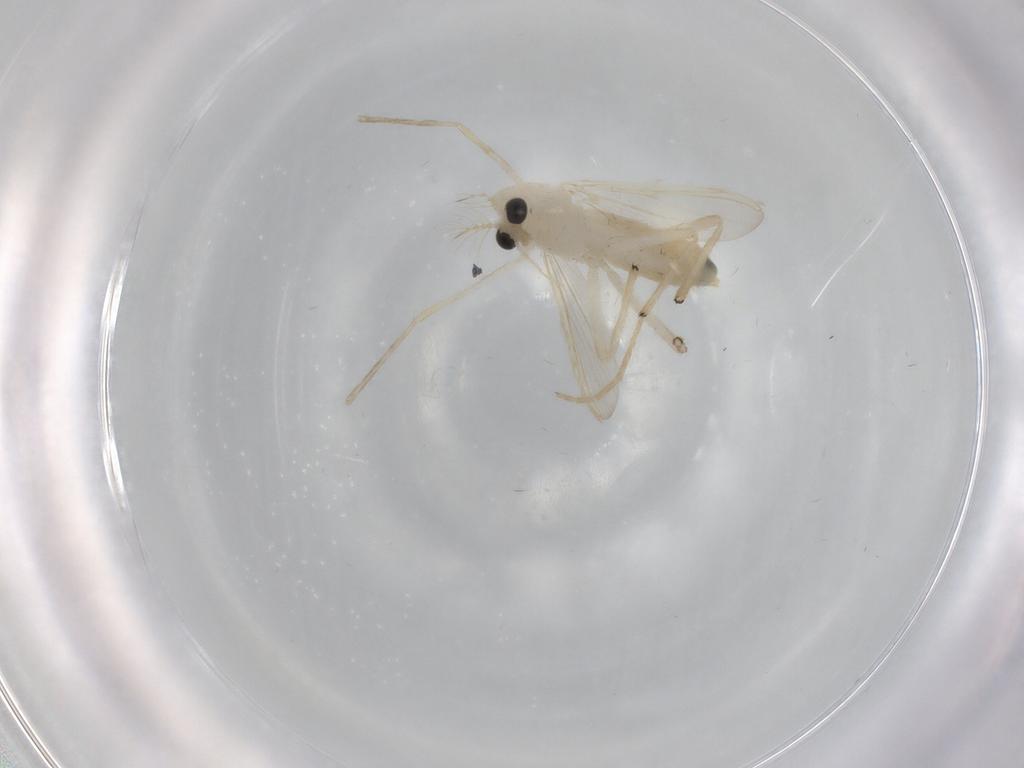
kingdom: Animalia
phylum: Arthropoda
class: Insecta
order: Diptera
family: Chironomidae
